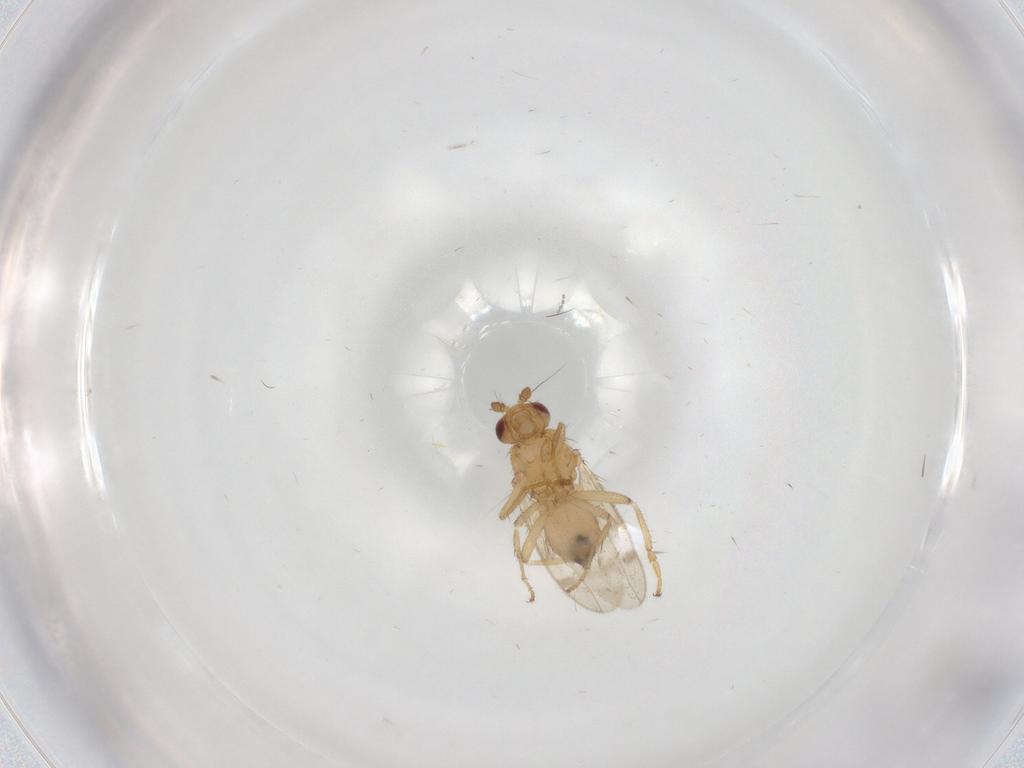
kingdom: Animalia
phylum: Arthropoda
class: Insecta
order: Diptera
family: Sphaeroceridae
